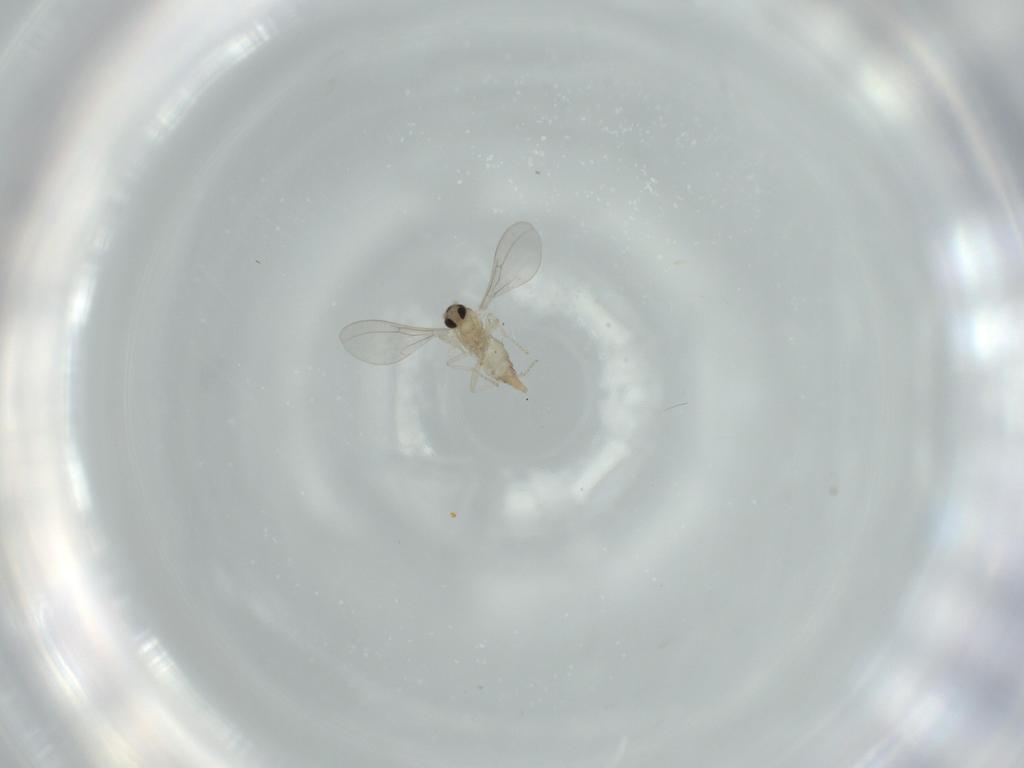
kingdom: Animalia
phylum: Arthropoda
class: Insecta
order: Diptera
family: Cecidomyiidae
